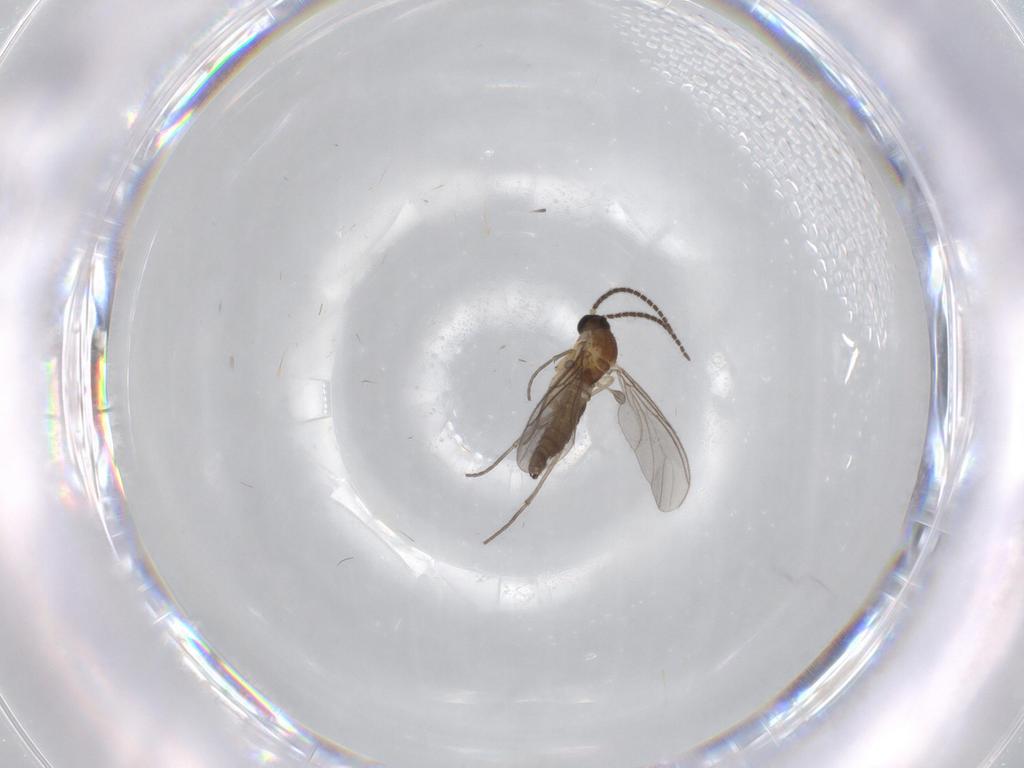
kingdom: Animalia
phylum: Arthropoda
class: Insecta
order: Diptera
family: Sciaridae
